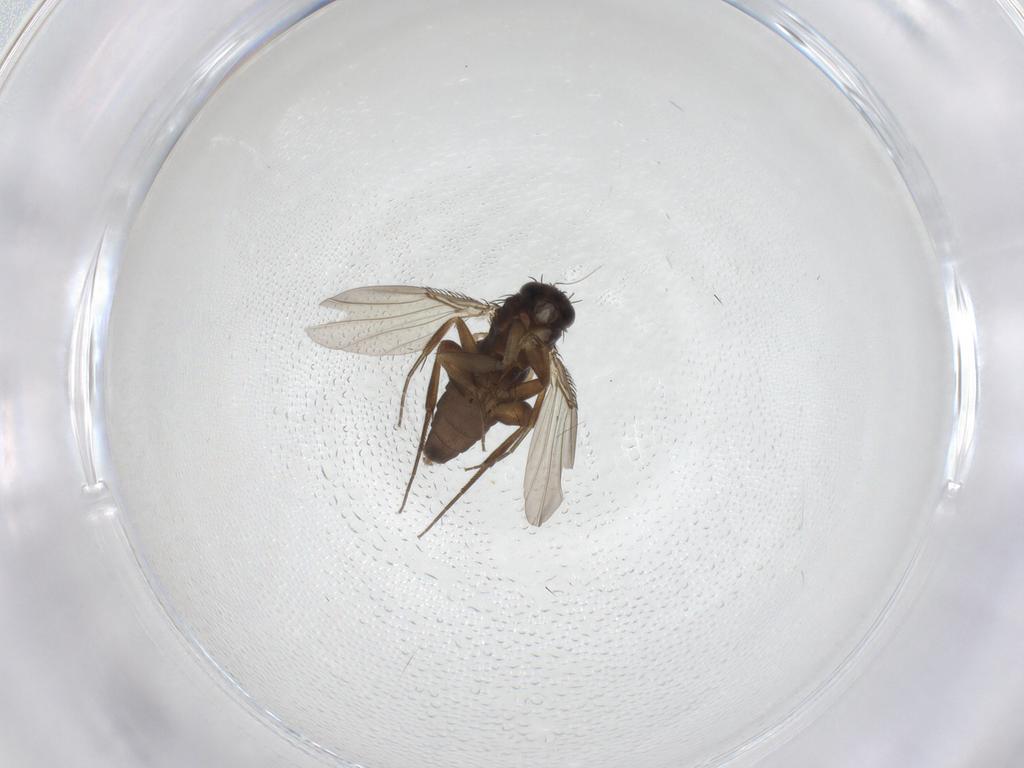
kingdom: Animalia
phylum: Arthropoda
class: Insecta
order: Diptera
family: Phoridae
